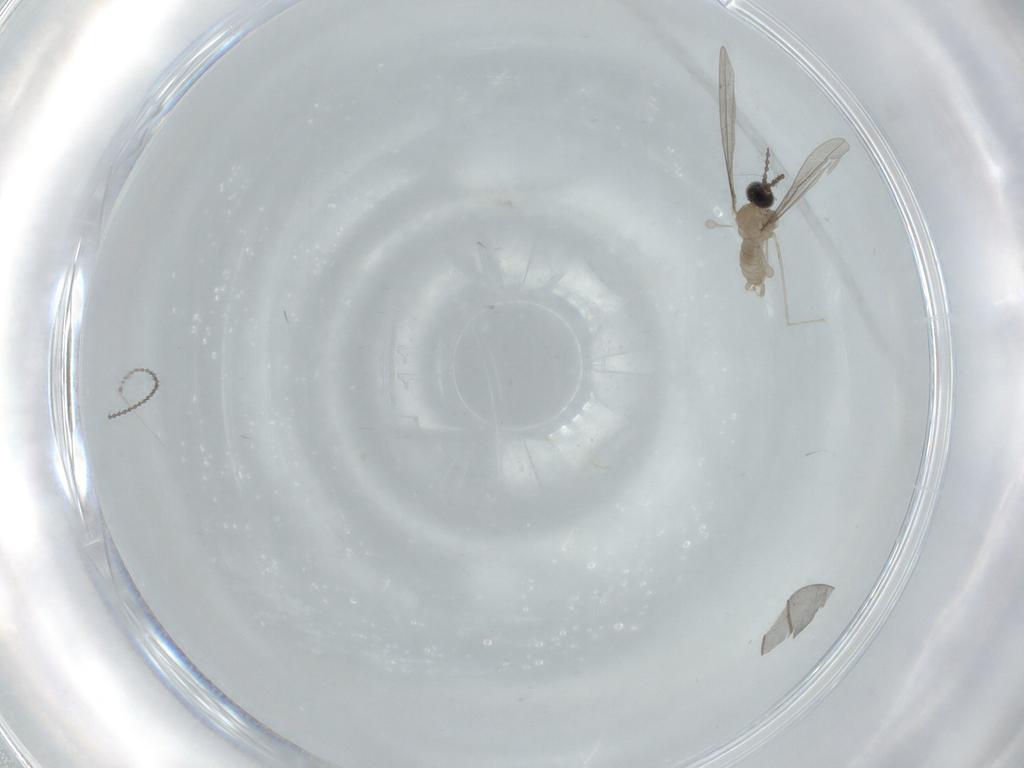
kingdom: Animalia
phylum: Arthropoda
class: Insecta
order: Diptera
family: Cecidomyiidae
